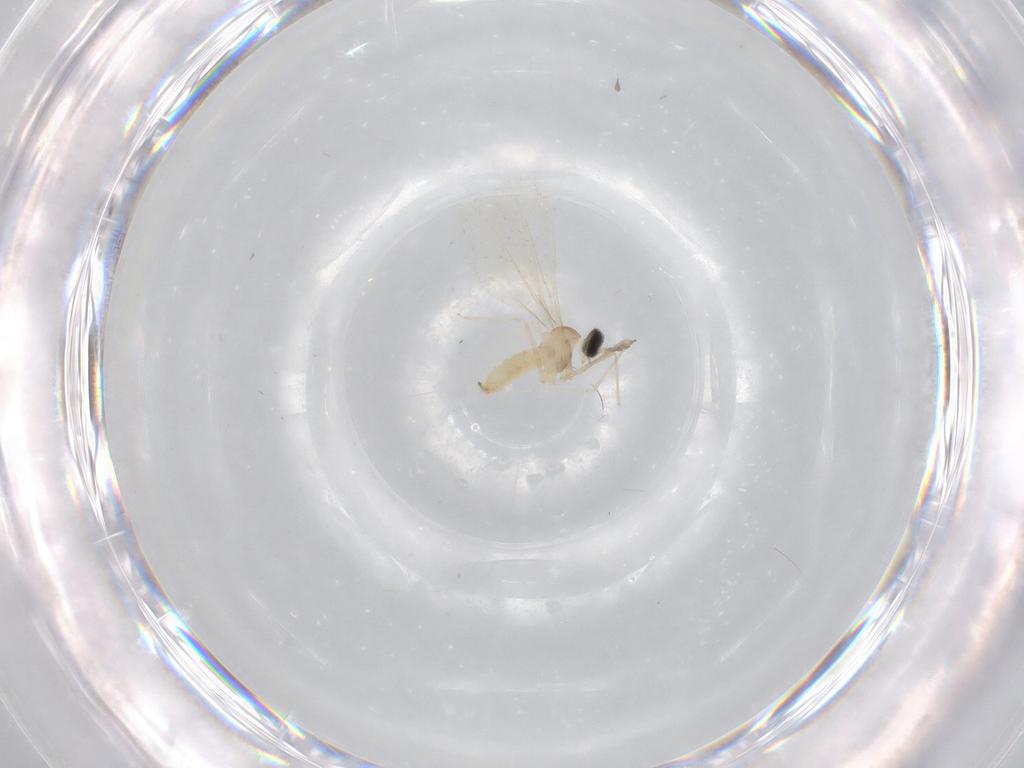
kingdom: Animalia
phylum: Arthropoda
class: Insecta
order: Diptera
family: Cecidomyiidae
